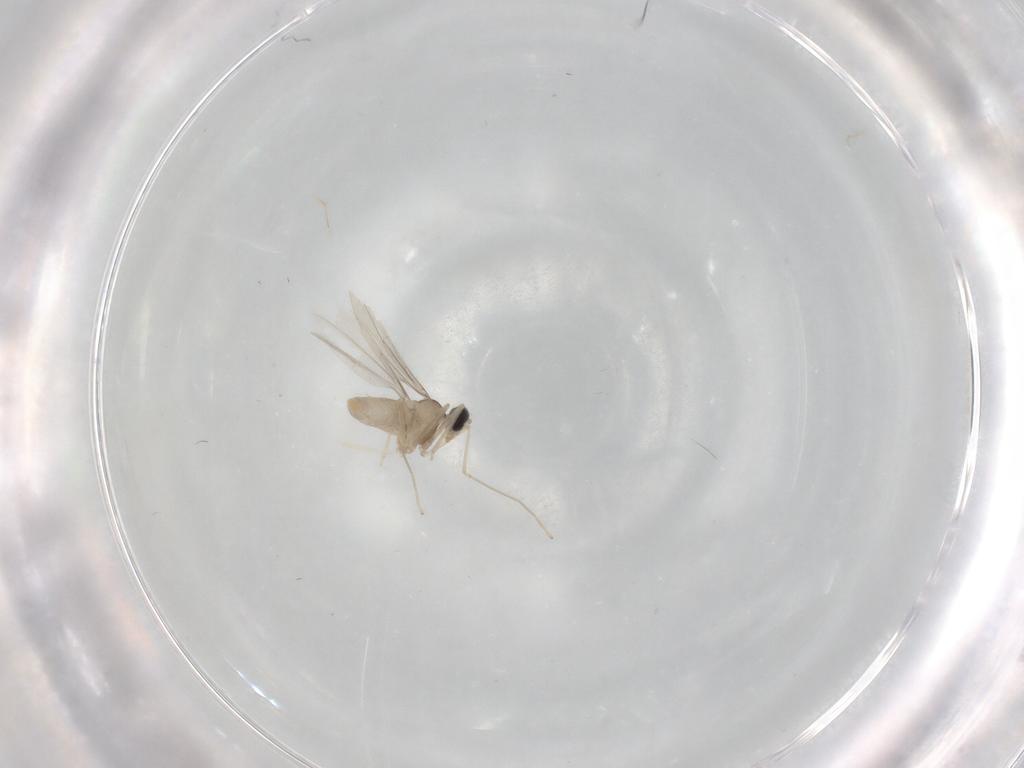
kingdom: Animalia
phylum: Arthropoda
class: Insecta
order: Diptera
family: Cecidomyiidae
